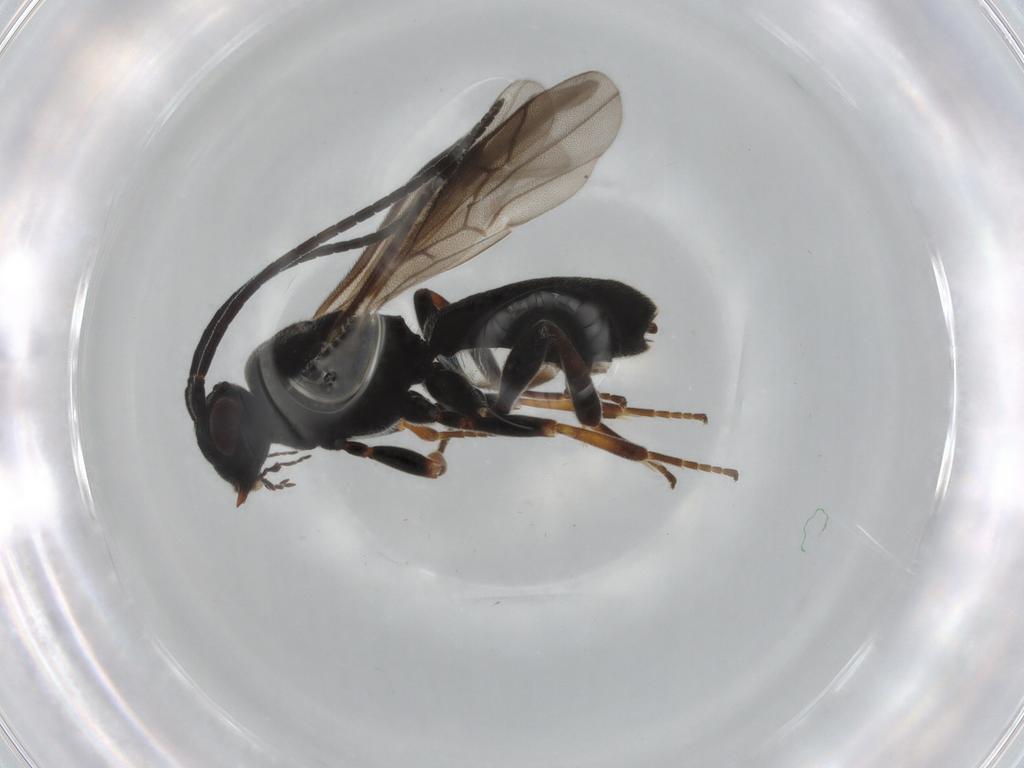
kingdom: Animalia
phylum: Arthropoda
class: Insecta
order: Hymenoptera
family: Braconidae
